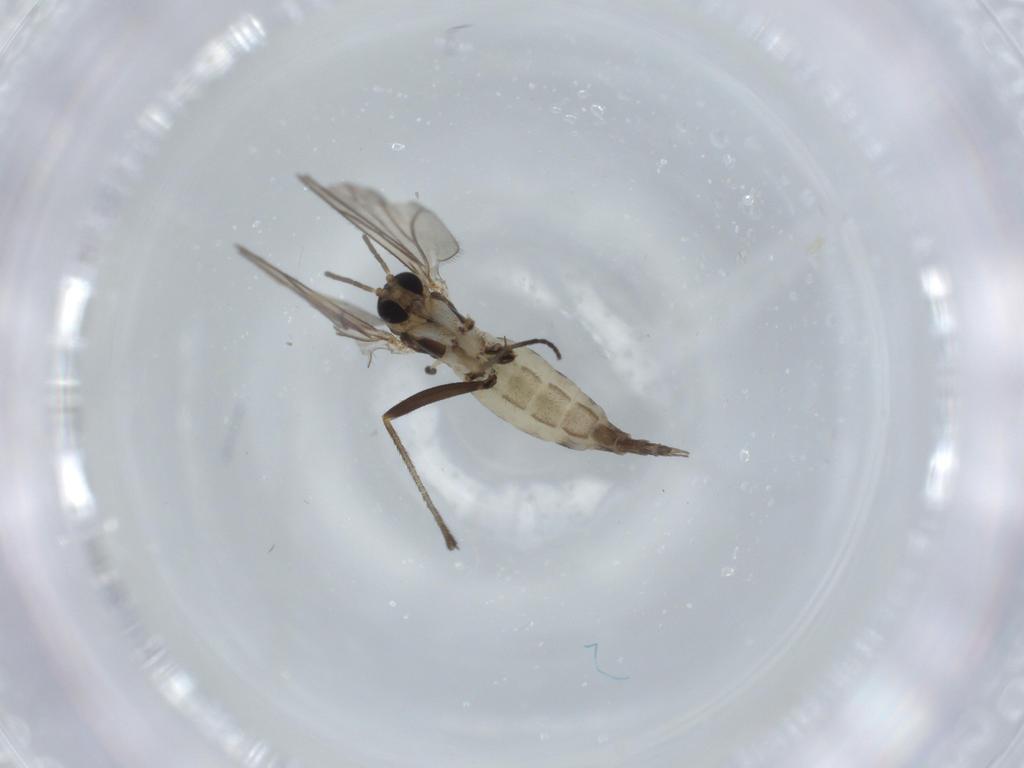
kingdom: Animalia
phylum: Arthropoda
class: Insecta
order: Diptera
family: Sciaridae
